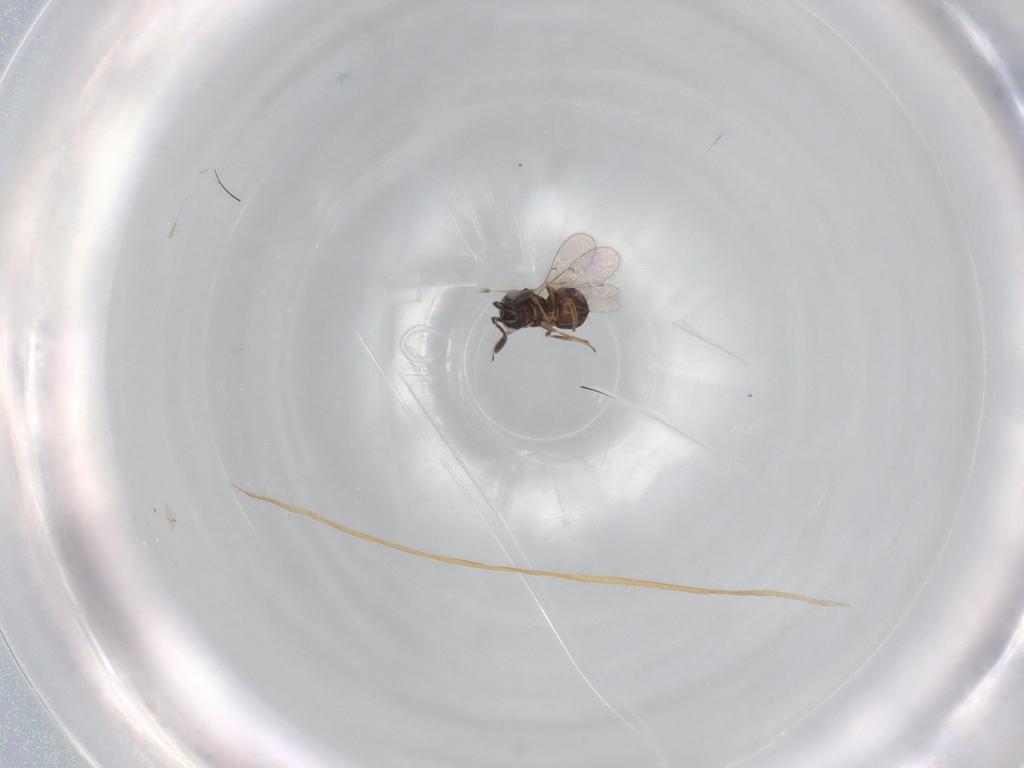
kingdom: Animalia
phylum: Arthropoda
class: Insecta
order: Hymenoptera
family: Scelionidae
